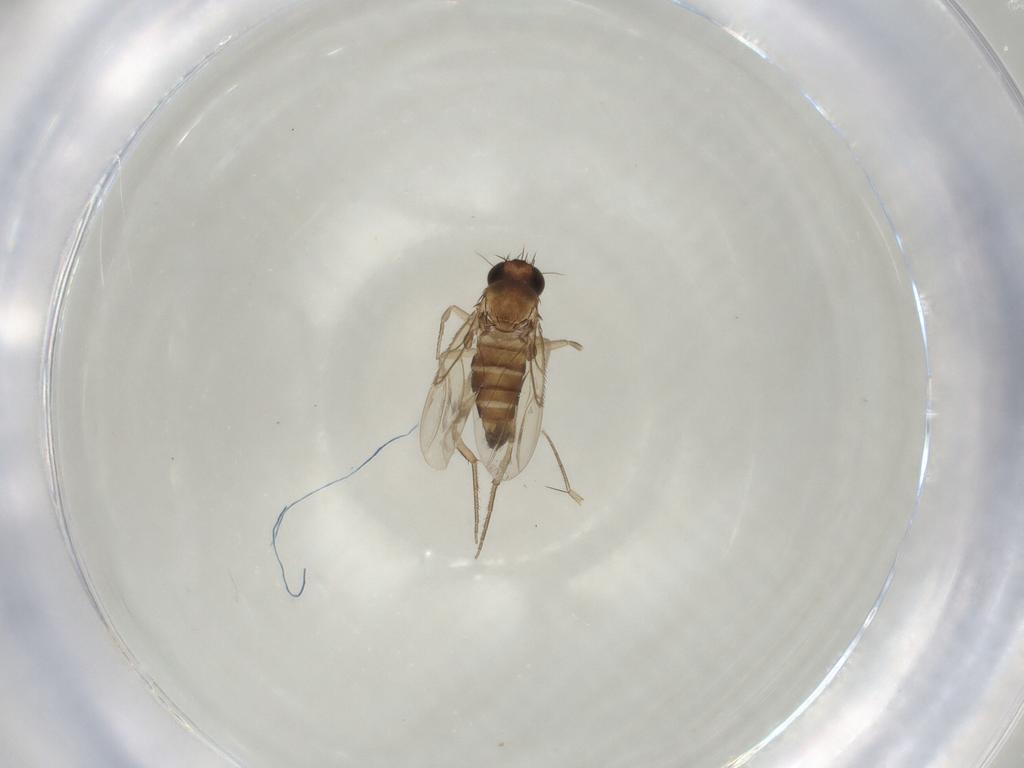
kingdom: Animalia
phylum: Arthropoda
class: Insecta
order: Diptera
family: Phoridae
